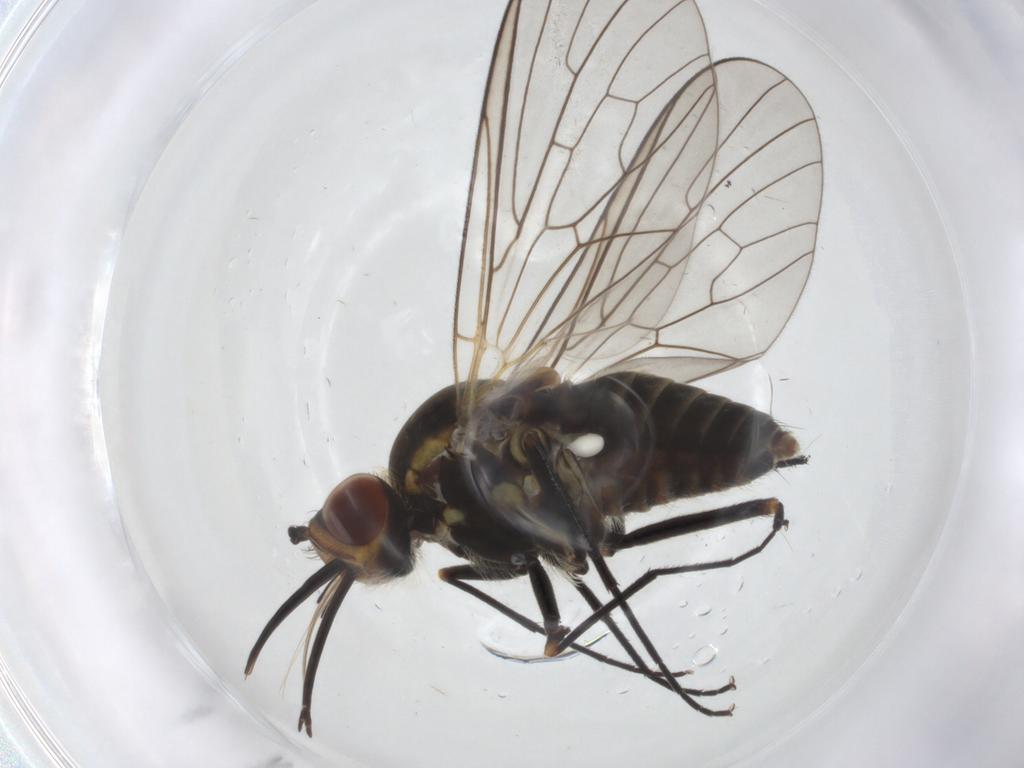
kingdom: Animalia
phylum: Arthropoda
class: Insecta
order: Diptera
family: Bombyliidae
